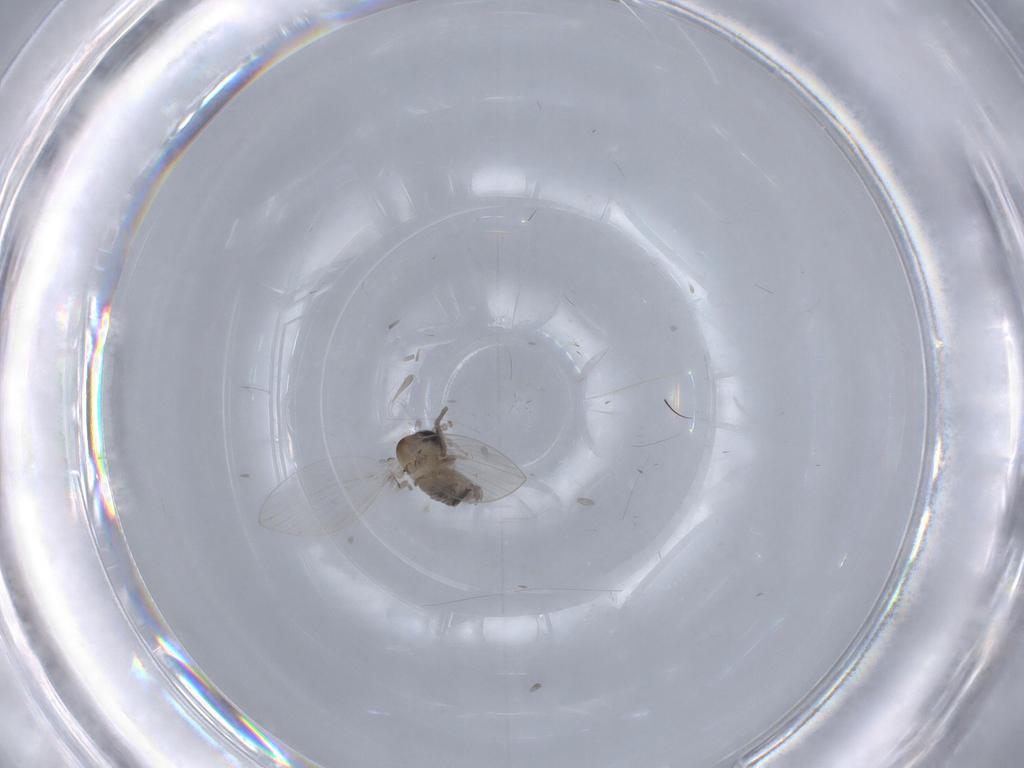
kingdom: Animalia
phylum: Arthropoda
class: Insecta
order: Diptera
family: Psychodidae
